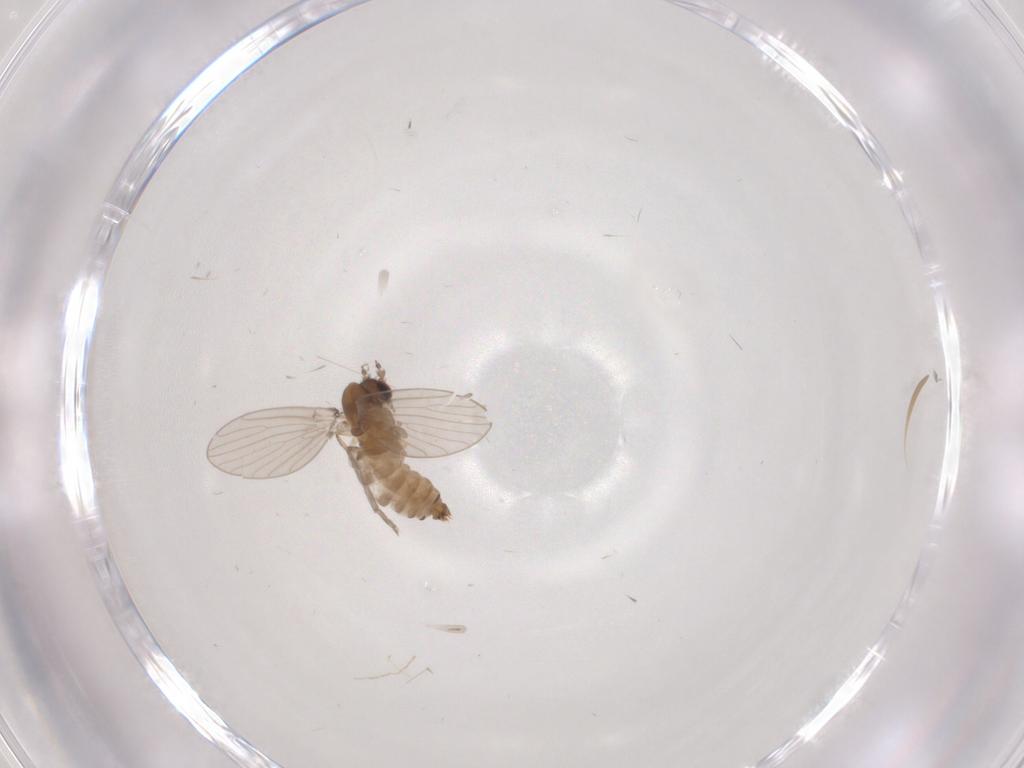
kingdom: Animalia
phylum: Arthropoda
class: Insecta
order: Diptera
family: Psychodidae
